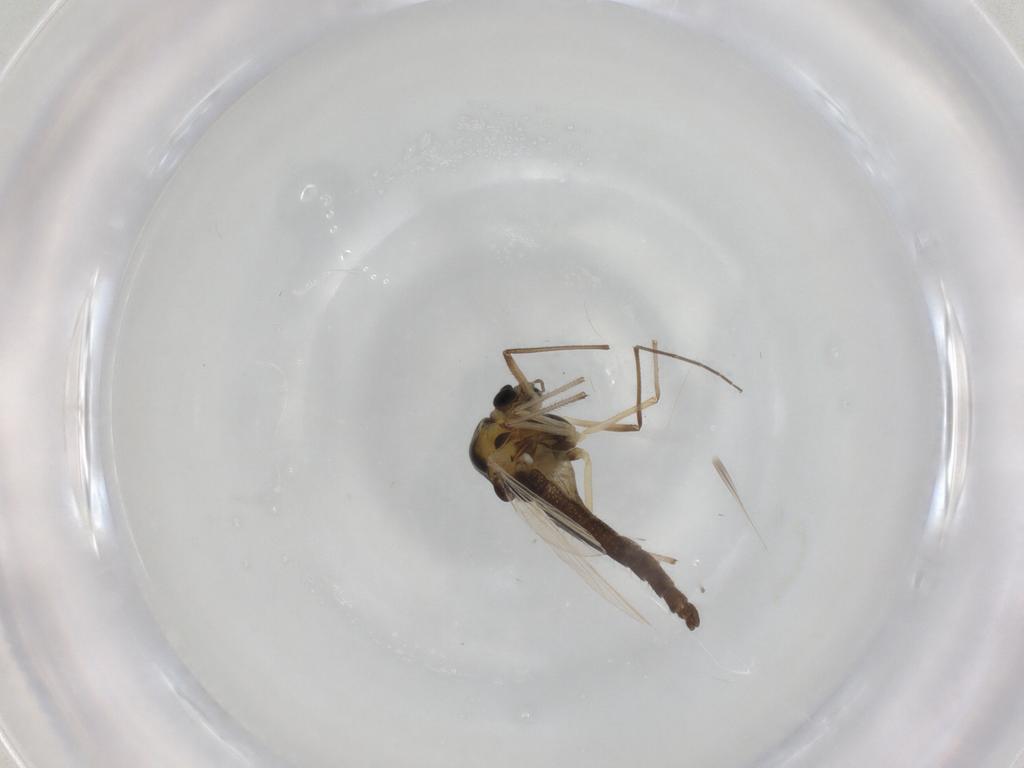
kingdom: Animalia
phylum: Arthropoda
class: Insecta
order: Diptera
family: Chironomidae
